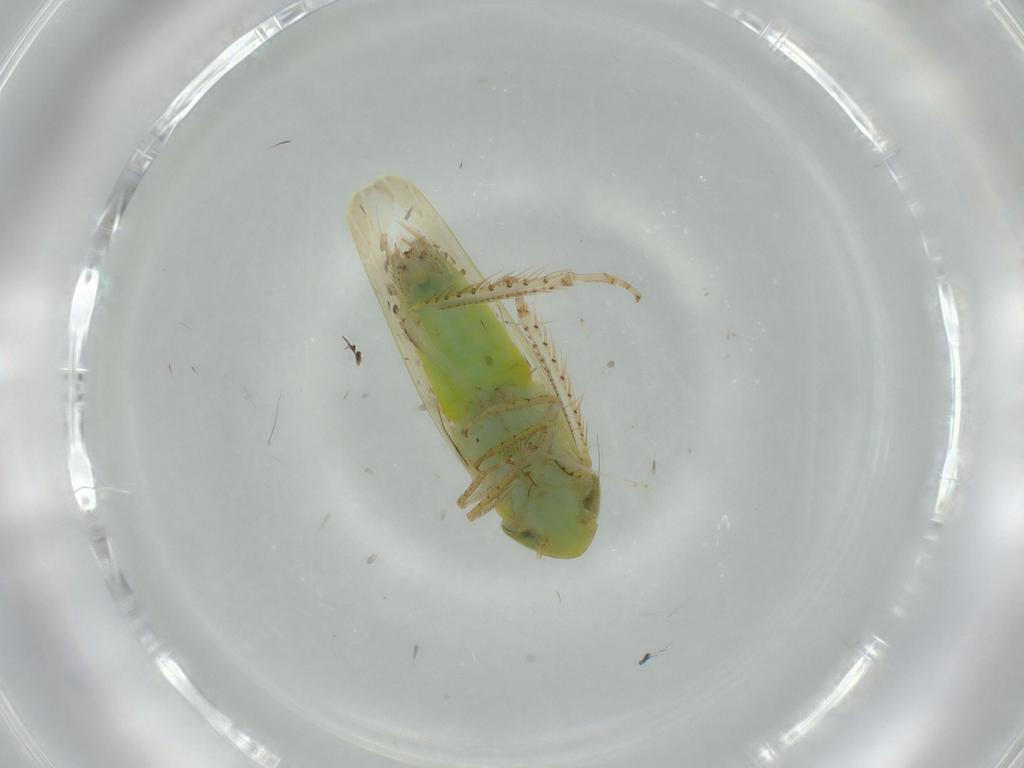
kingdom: Animalia
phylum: Arthropoda
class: Insecta
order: Hemiptera
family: Cicadellidae
